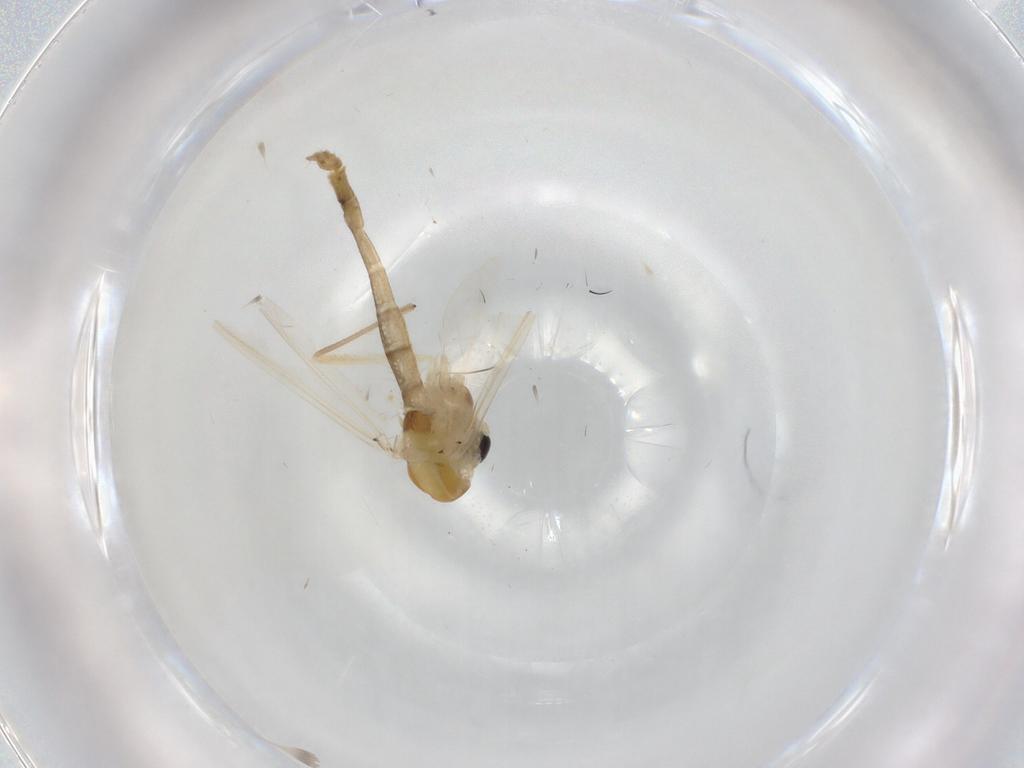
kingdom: Animalia
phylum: Arthropoda
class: Insecta
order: Diptera
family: Chironomidae
